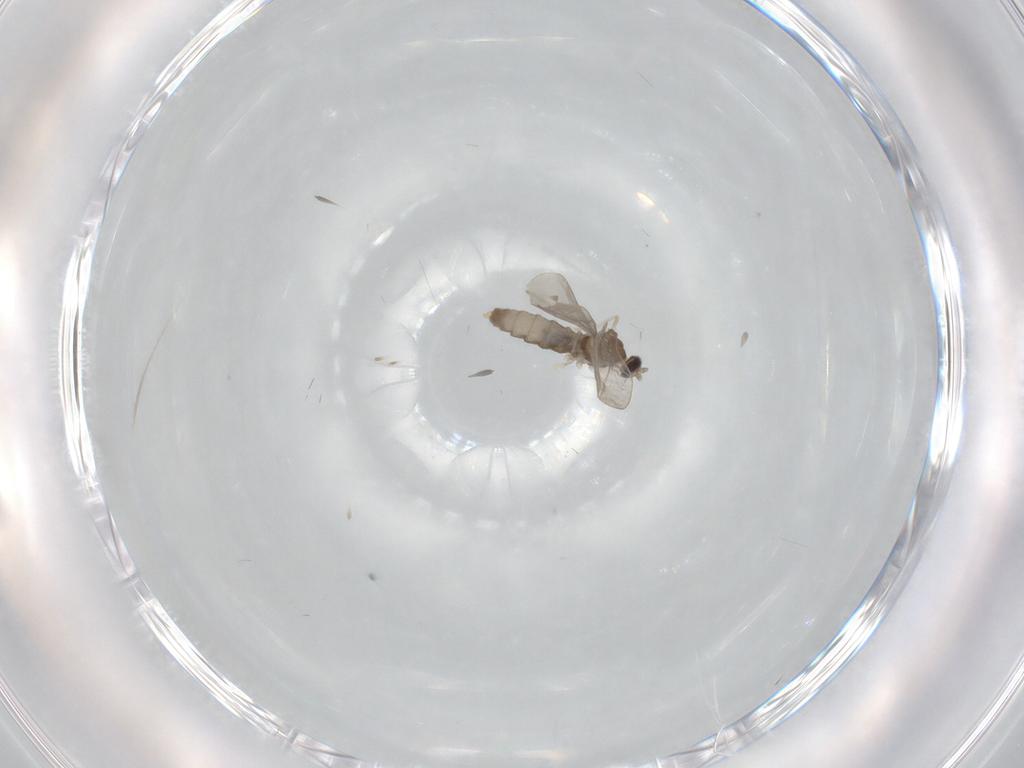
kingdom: Animalia
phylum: Arthropoda
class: Insecta
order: Diptera
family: Cecidomyiidae
